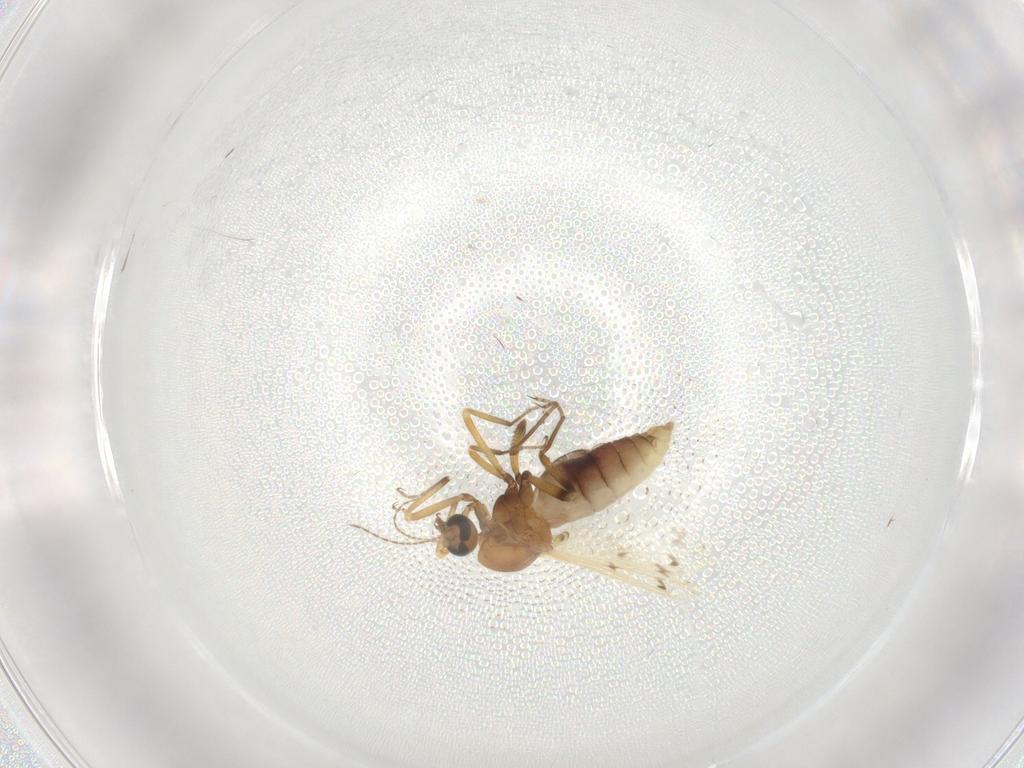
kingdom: Animalia
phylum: Arthropoda
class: Insecta
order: Diptera
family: Ceratopogonidae
